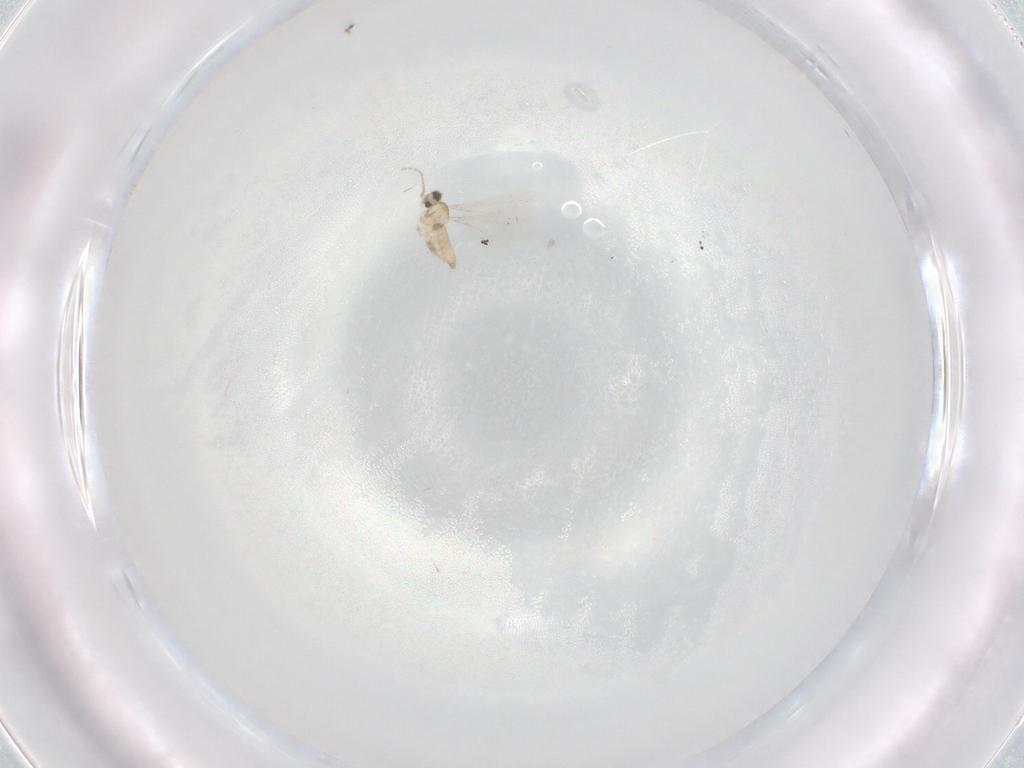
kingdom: Animalia
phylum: Arthropoda
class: Insecta
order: Diptera
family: Cecidomyiidae
